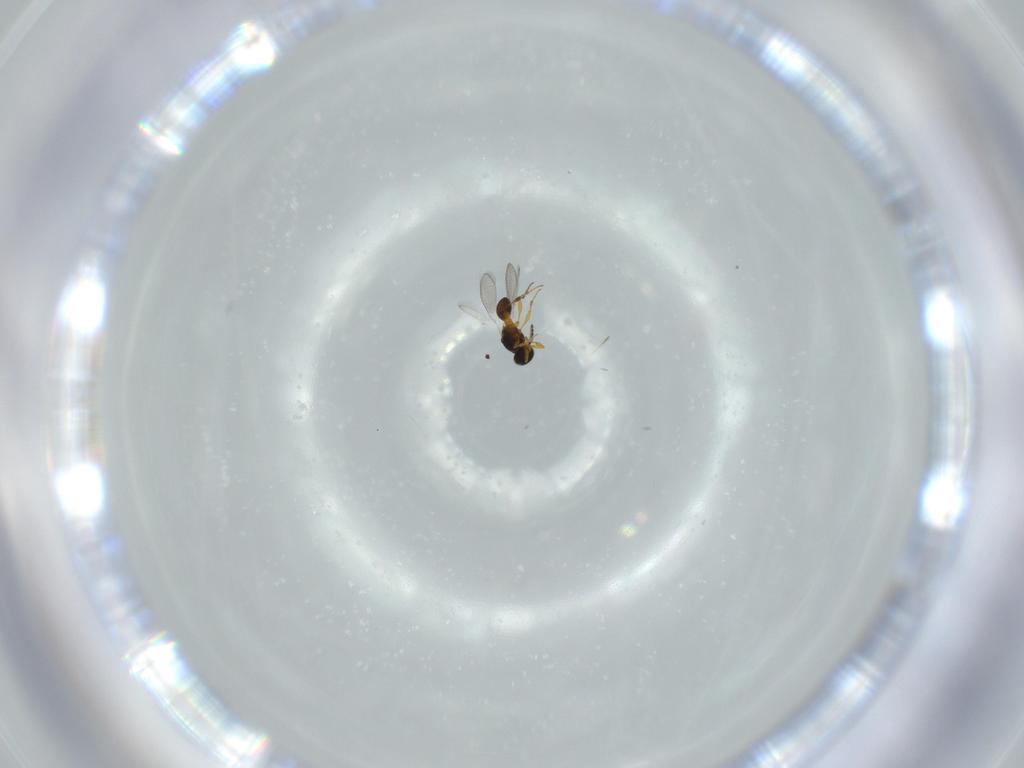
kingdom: Animalia
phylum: Arthropoda
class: Insecta
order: Hymenoptera
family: Platygastridae
